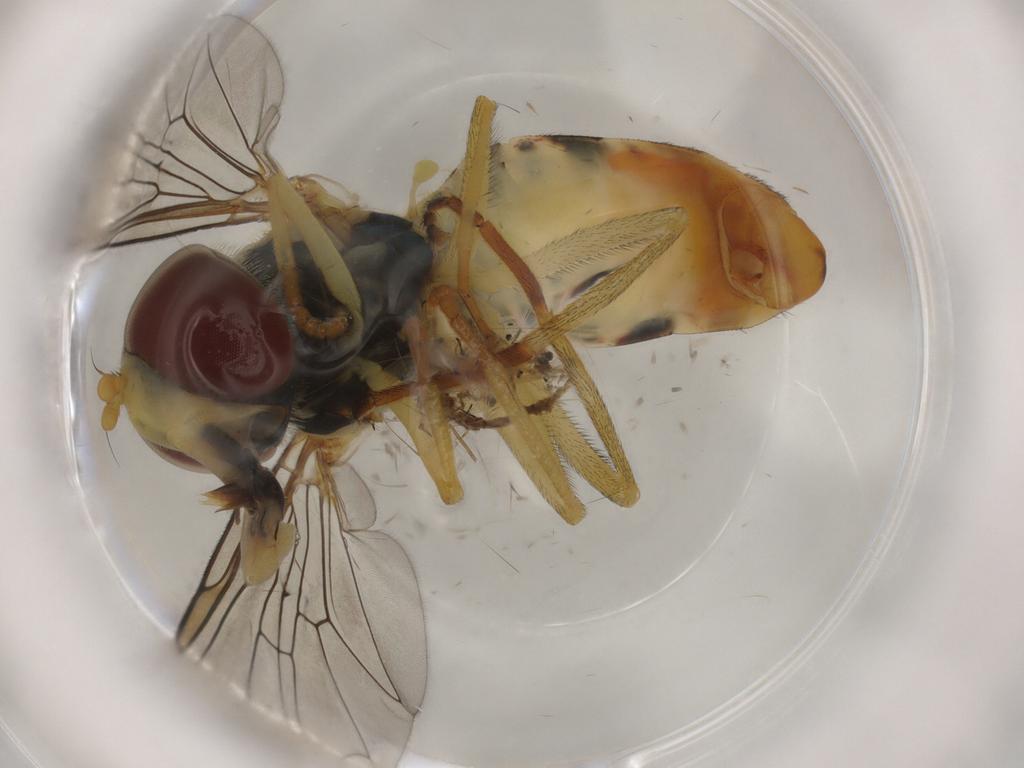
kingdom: Animalia
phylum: Arthropoda
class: Insecta
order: Diptera
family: Syrphidae
